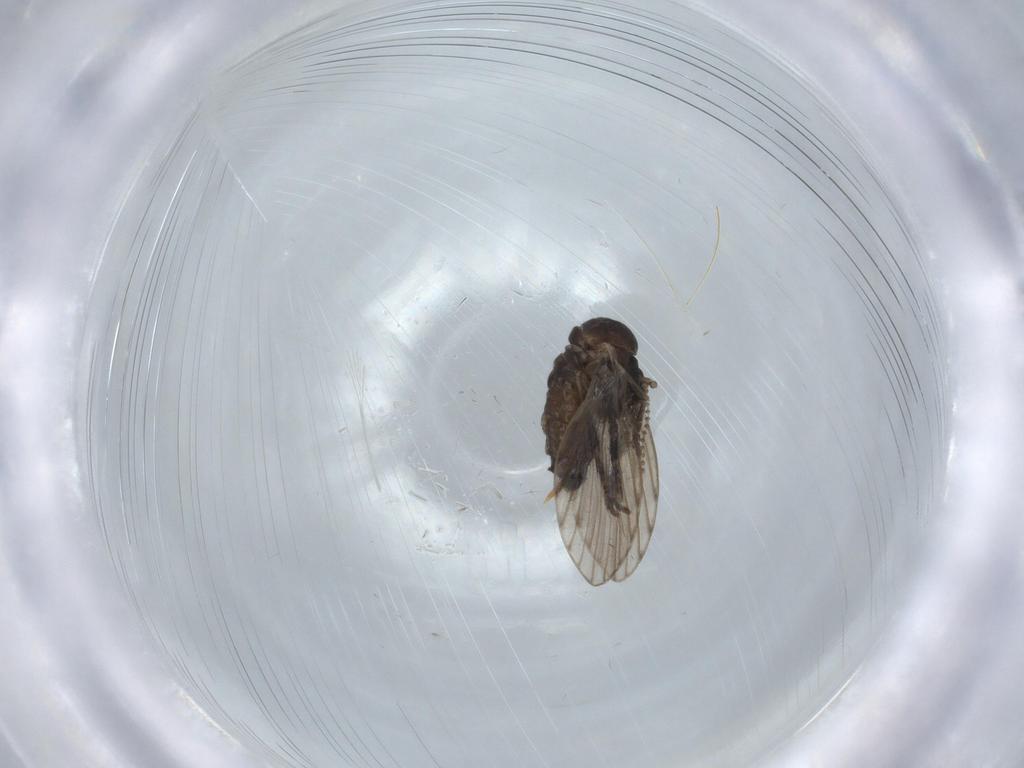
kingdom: Animalia
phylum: Arthropoda
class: Insecta
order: Diptera
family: Psychodidae
